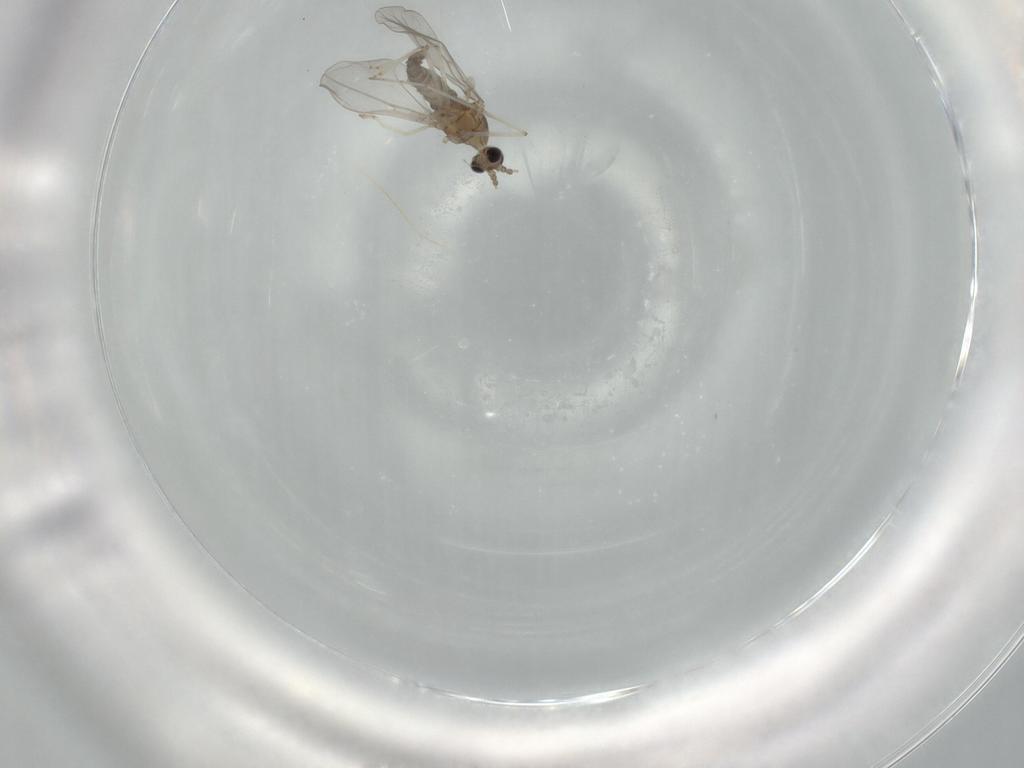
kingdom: Animalia
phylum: Arthropoda
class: Insecta
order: Diptera
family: Cecidomyiidae
